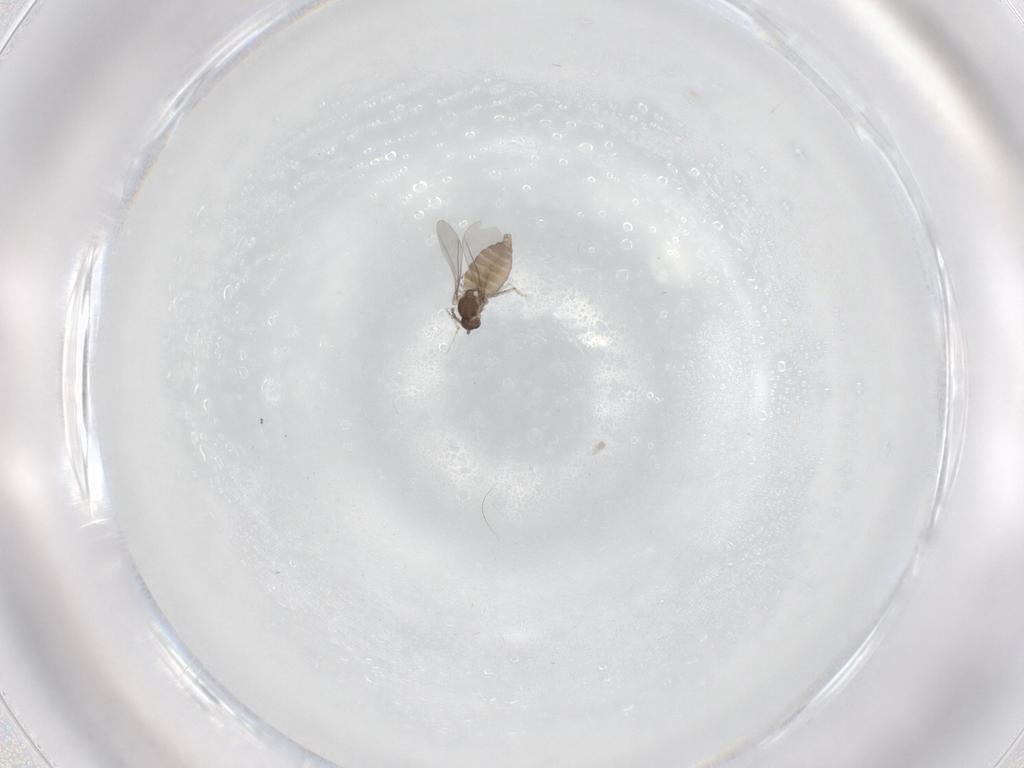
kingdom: Animalia
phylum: Arthropoda
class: Insecta
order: Diptera
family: Cecidomyiidae
